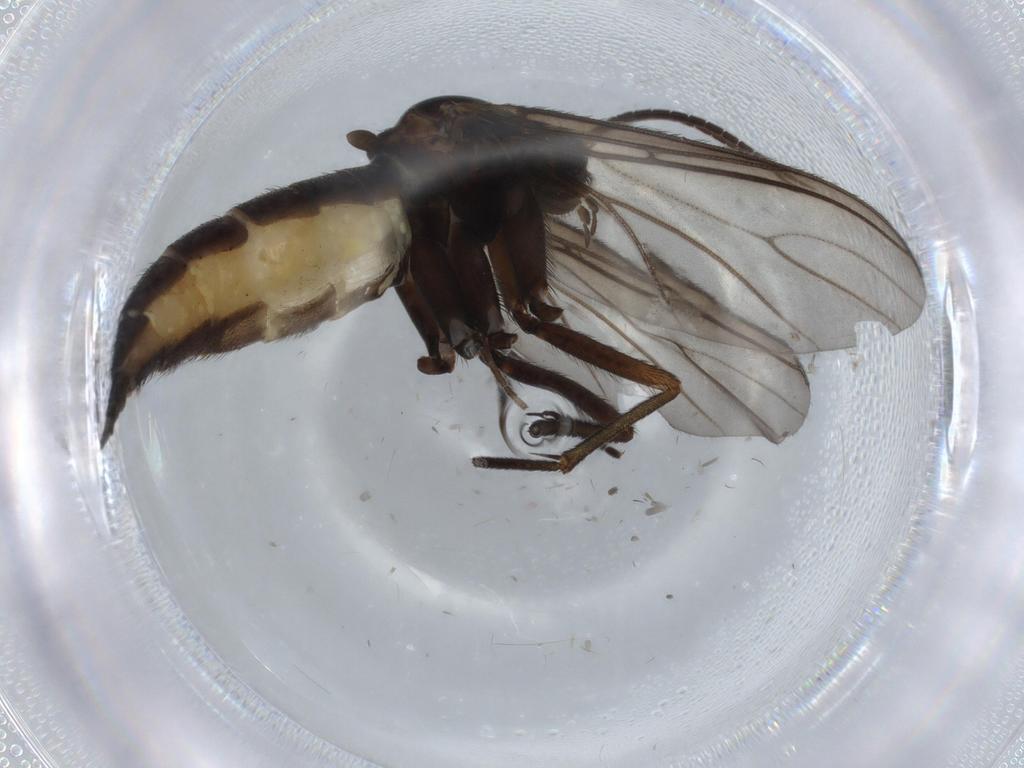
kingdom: Animalia
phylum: Arthropoda
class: Insecta
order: Diptera
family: Sciaridae
